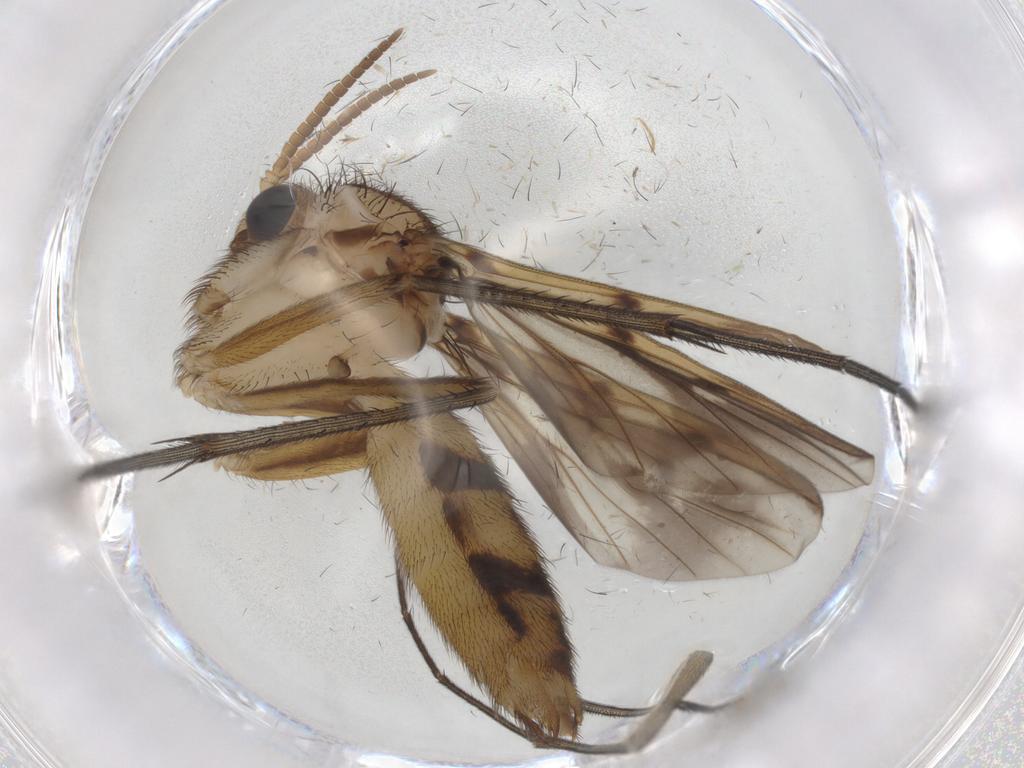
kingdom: Animalia
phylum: Arthropoda
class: Insecta
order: Diptera
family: Mycetophilidae
